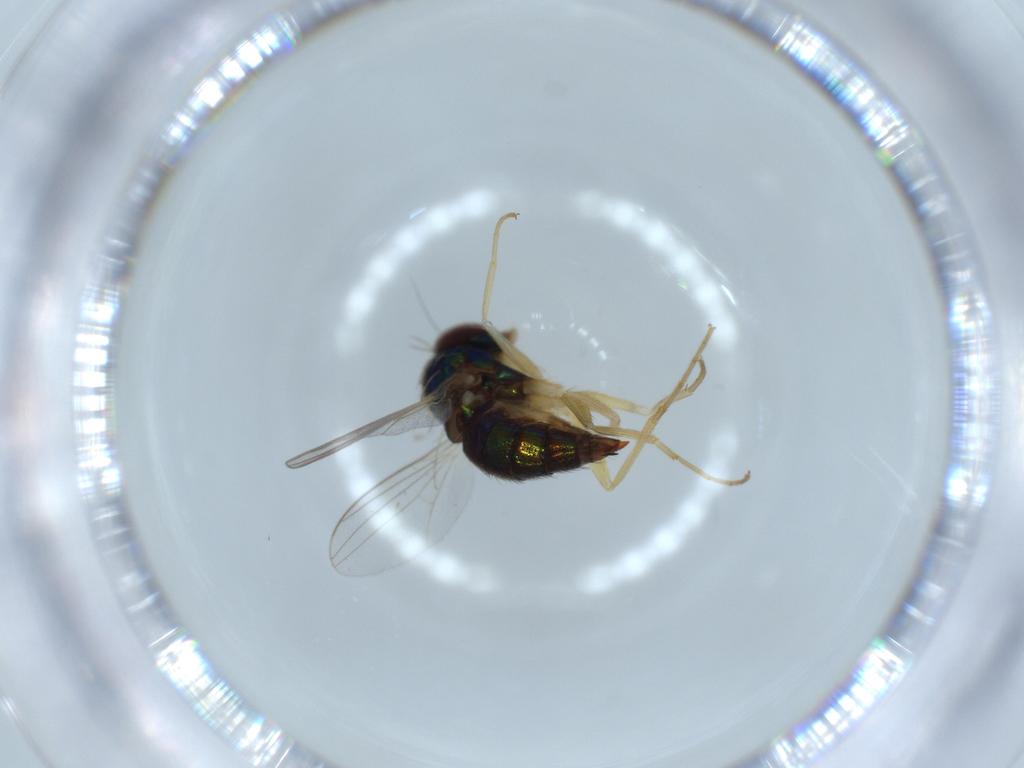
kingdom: Animalia
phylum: Arthropoda
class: Insecta
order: Diptera
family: Dolichopodidae
